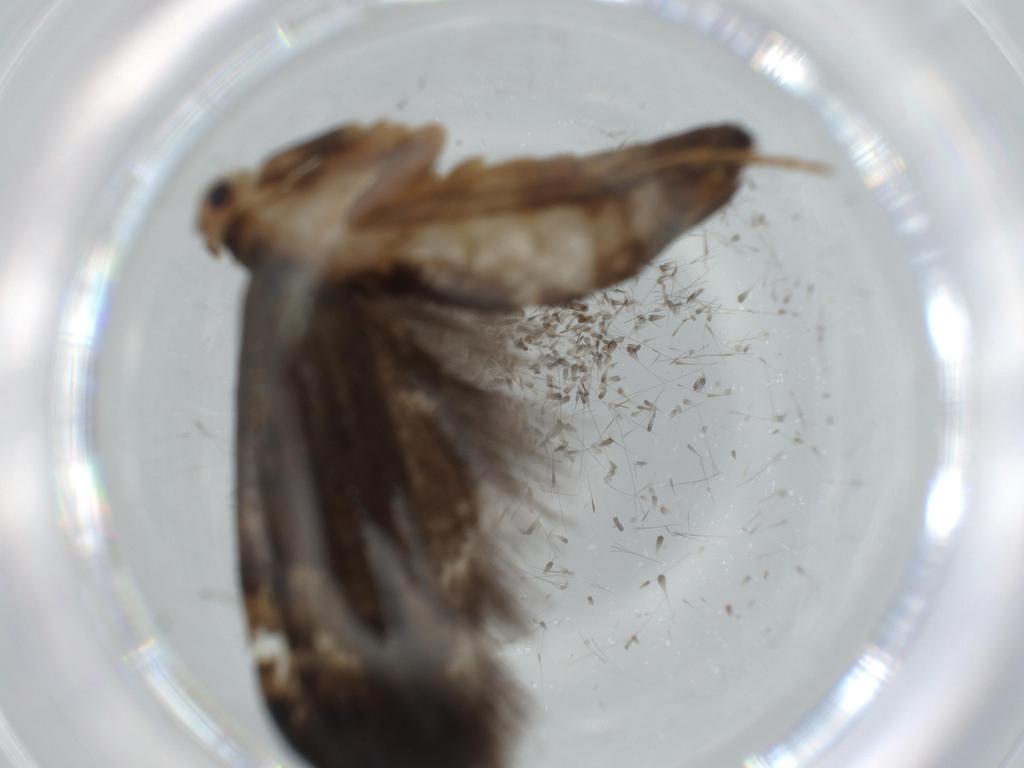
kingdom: Animalia
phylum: Arthropoda
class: Insecta
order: Lepidoptera
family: Tineidae
